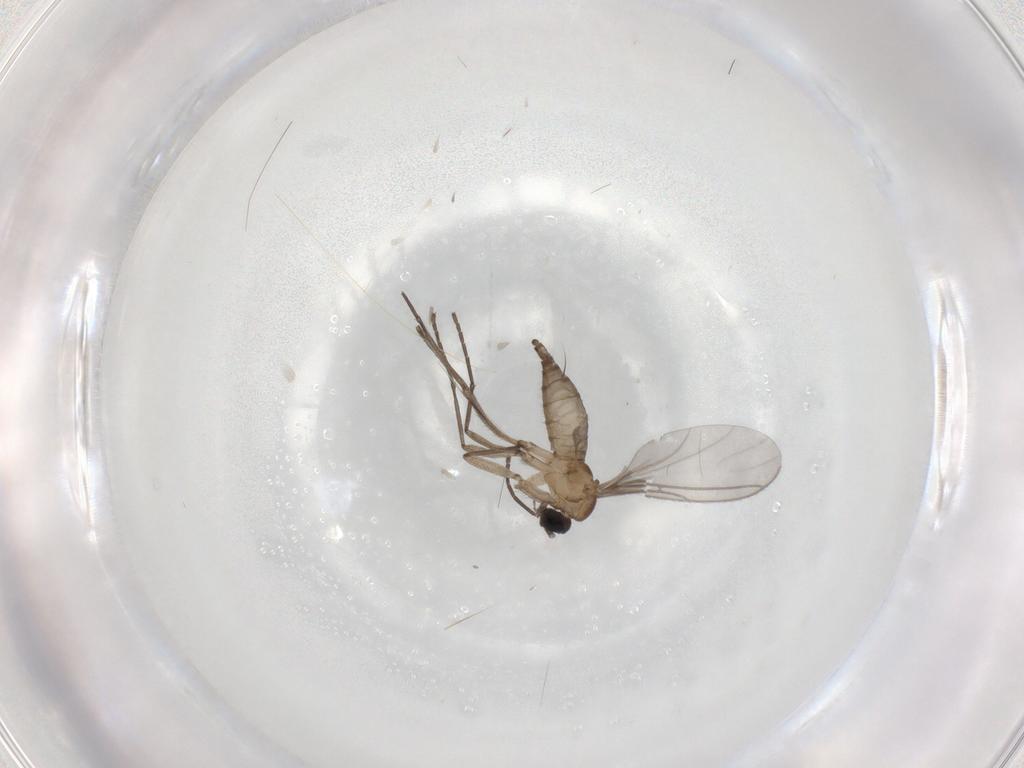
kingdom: Animalia
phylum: Arthropoda
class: Insecta
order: Diptera
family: Sciaridae
